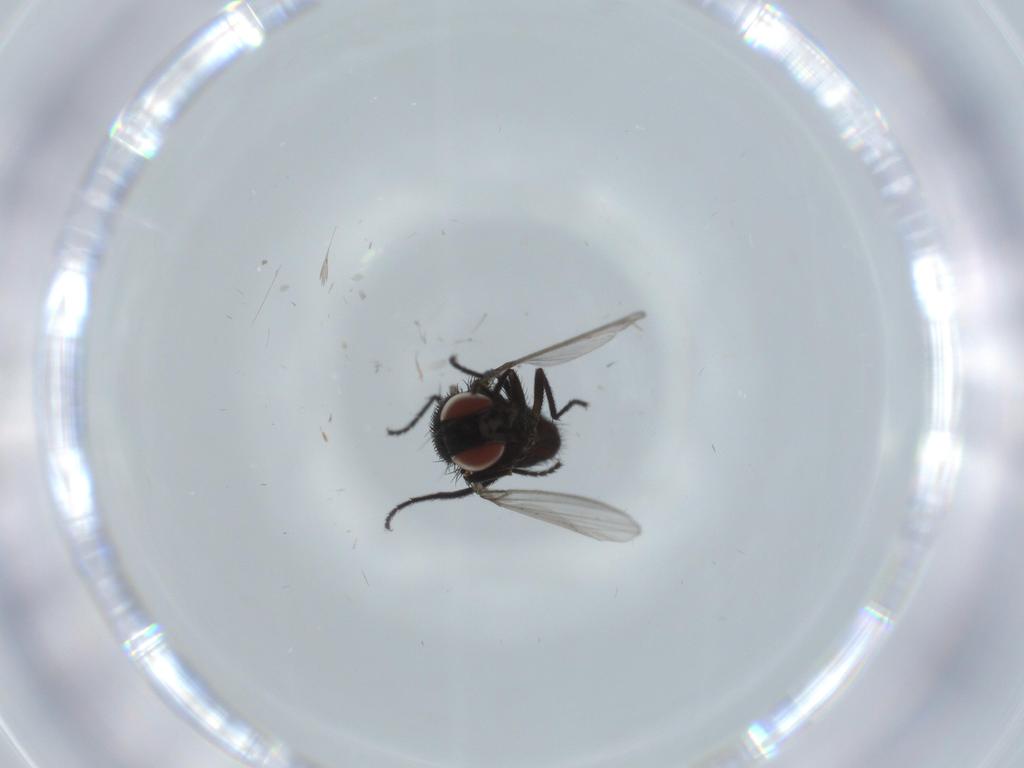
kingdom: Animalia
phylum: Arthropoda
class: Insecta
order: Diptera
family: Milichiidae
